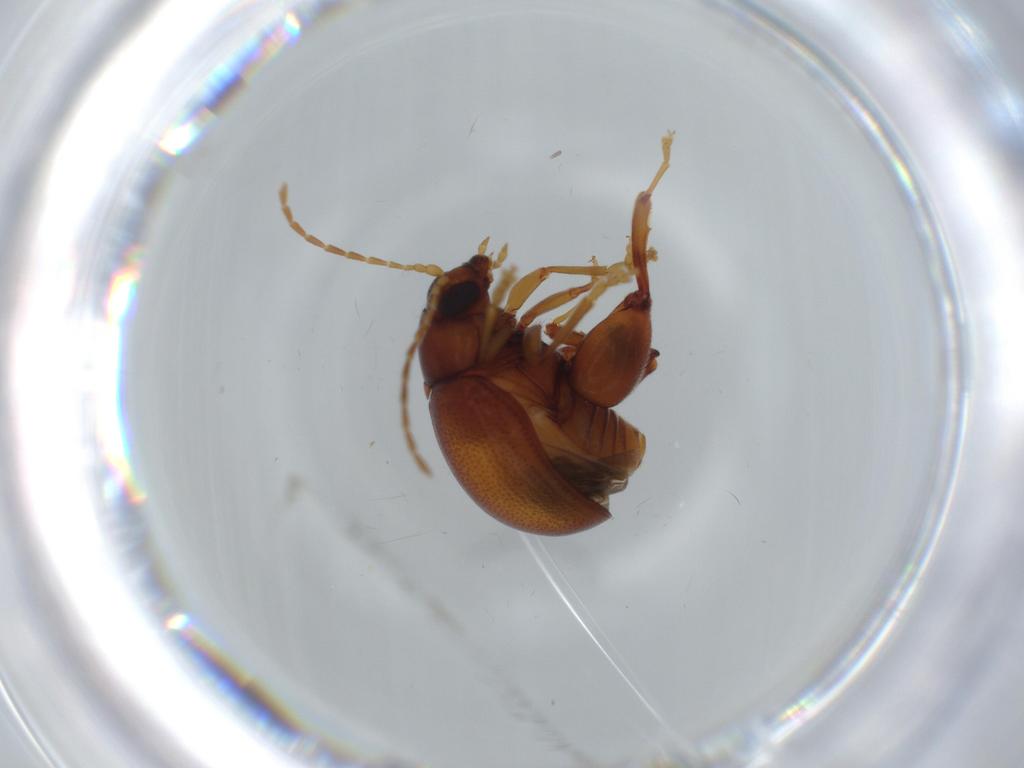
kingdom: Animalia
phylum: Arthropoda
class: Insecta
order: Coleoptera
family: Chrysomelidae
